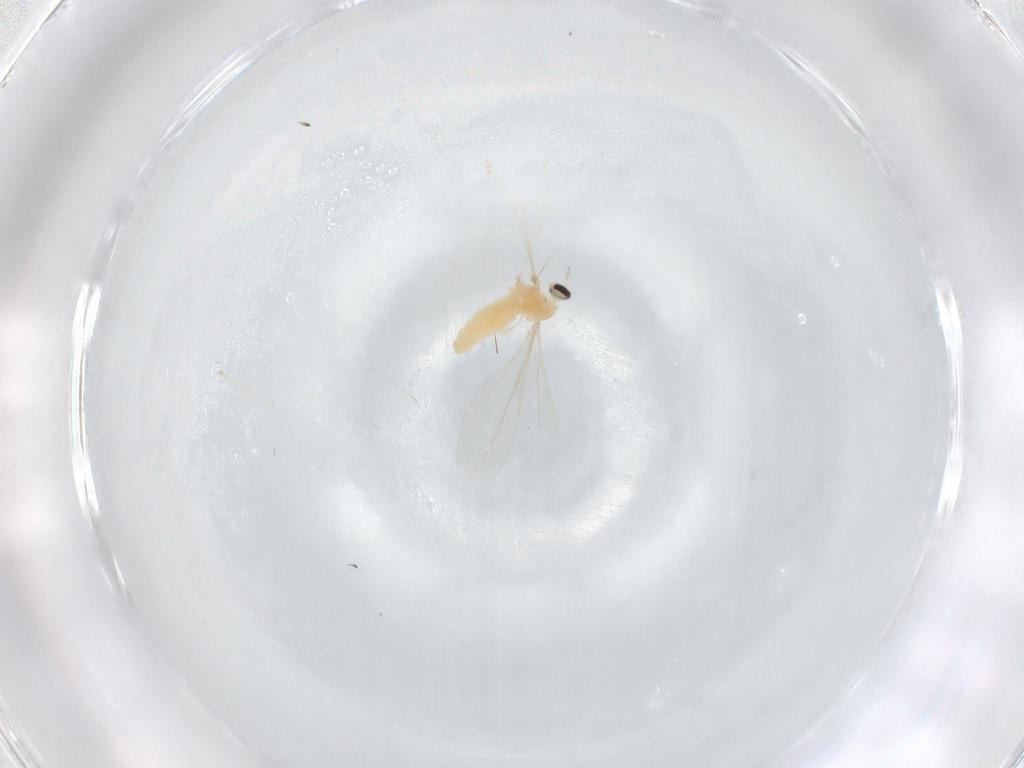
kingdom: Animalia
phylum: Arthropoda
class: Insecta
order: Diptera
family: Cecidomyiidae
